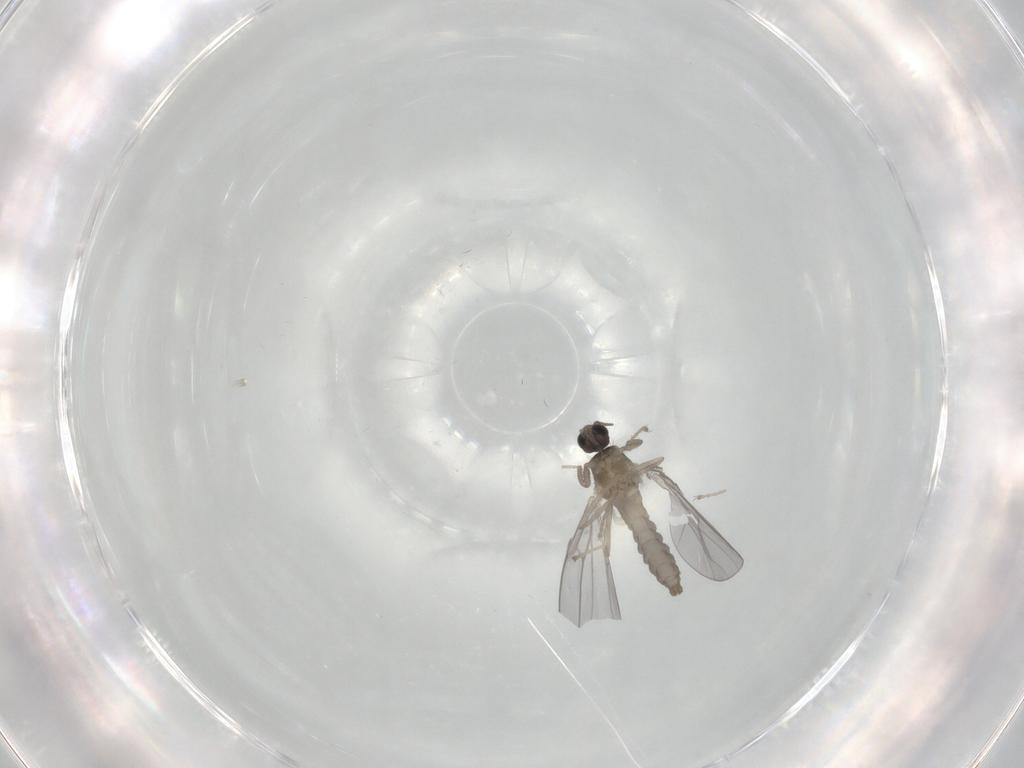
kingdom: Animalia
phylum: Arthropoda
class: Insecta
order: Diptera
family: Cecidomyiidae
